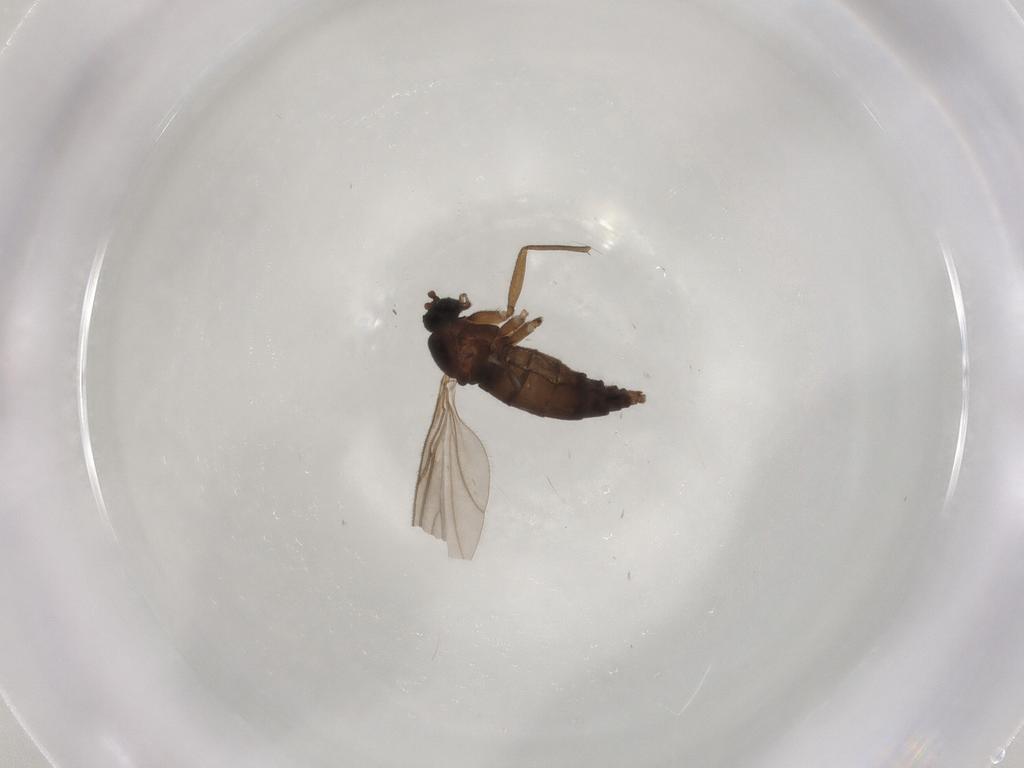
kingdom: Animalia
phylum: Arthropoda
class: Insecta
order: Diptera
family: Sciaridae
